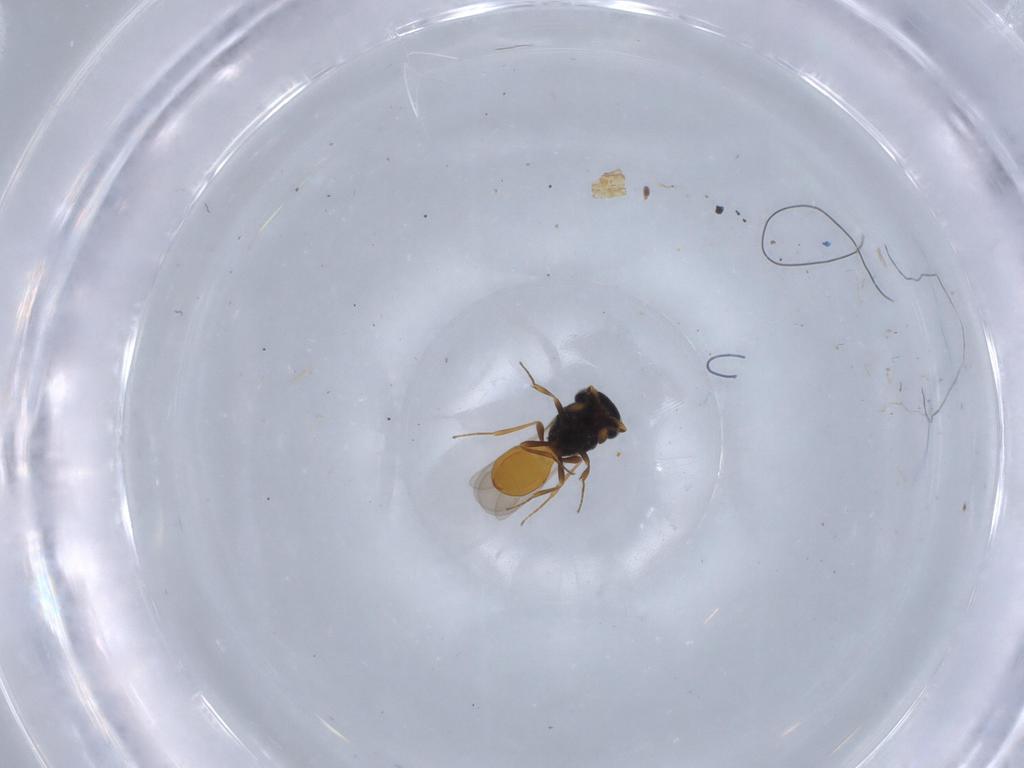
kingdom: Animalia
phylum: Arthropoda
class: Insecta
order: Hymenoptera
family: Scelionidae
